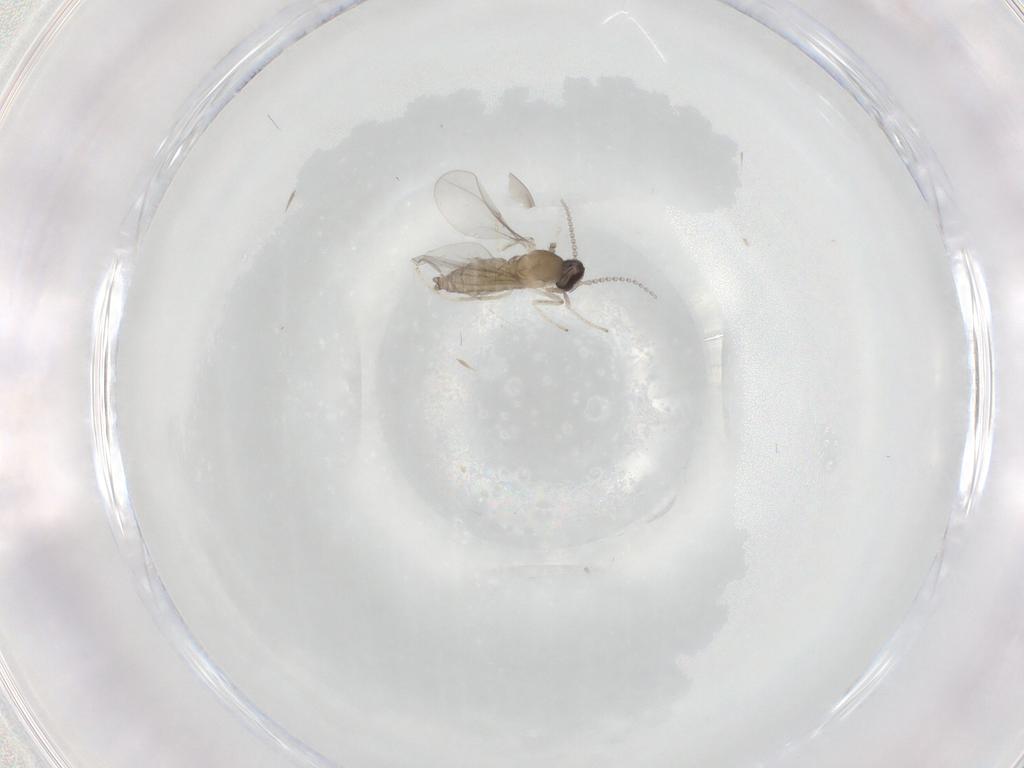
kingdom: Animalia
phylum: Arthropoda
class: Insecta
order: Diptera
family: Cecidomyiidae
